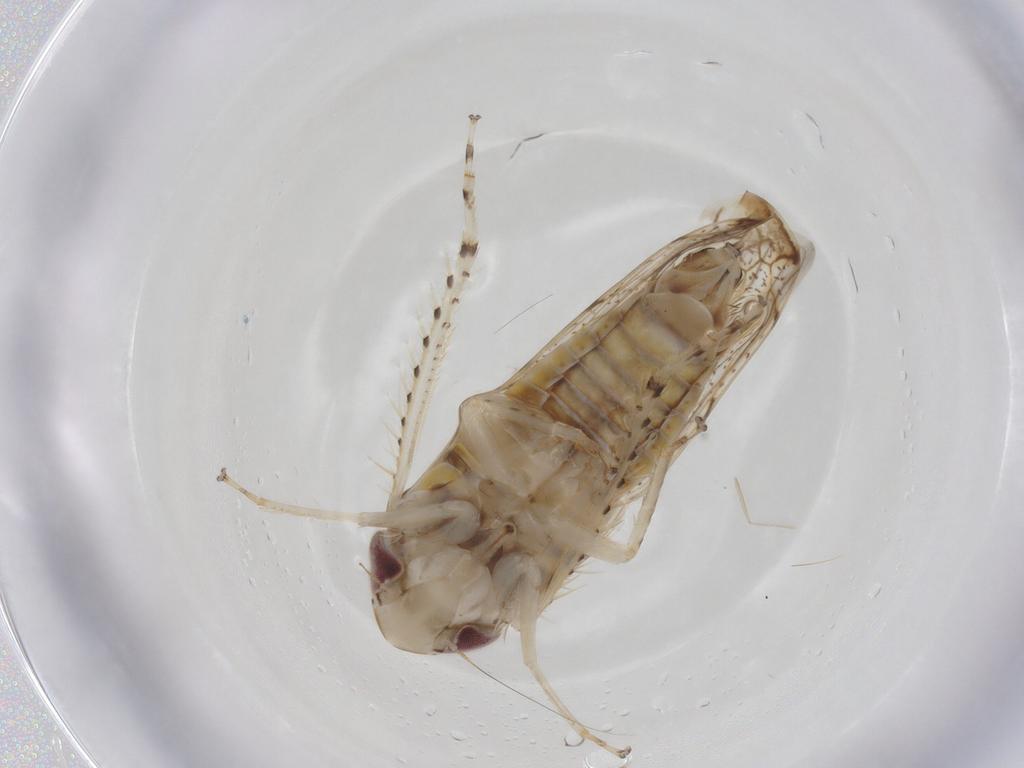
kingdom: Animalia
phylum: Arthropoda
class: Insecta
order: Hemiptera
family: Cicadellidae
